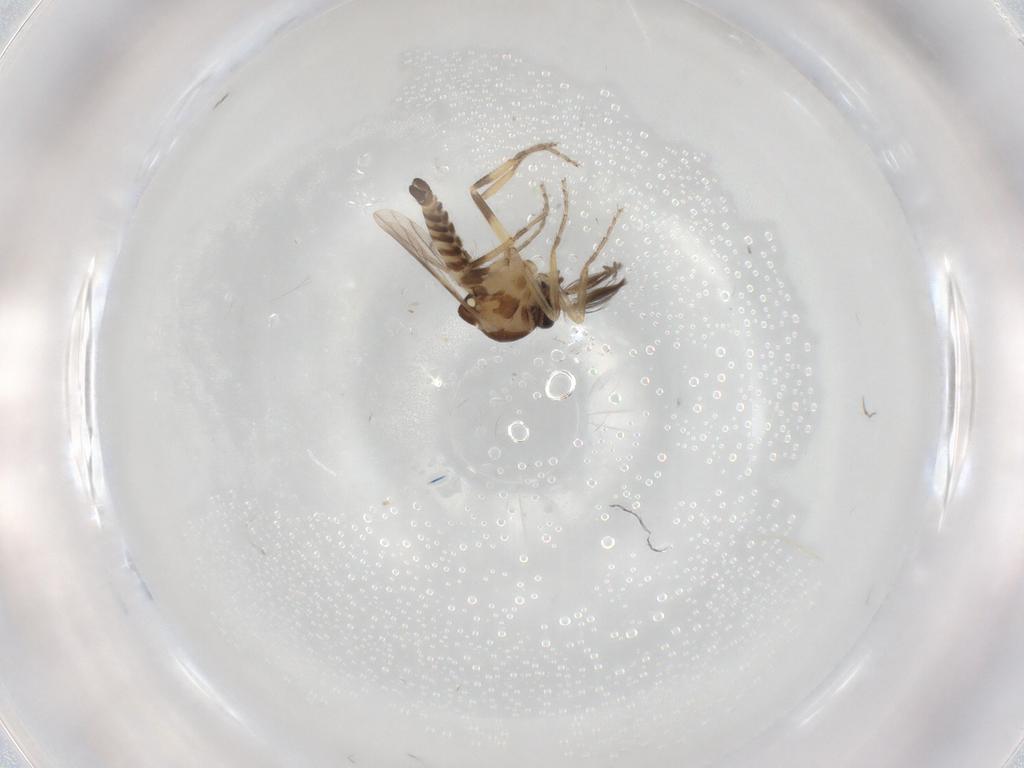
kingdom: Animalia
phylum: Arthropoda
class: Insecta
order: Diptera
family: Ceratopogonidae
